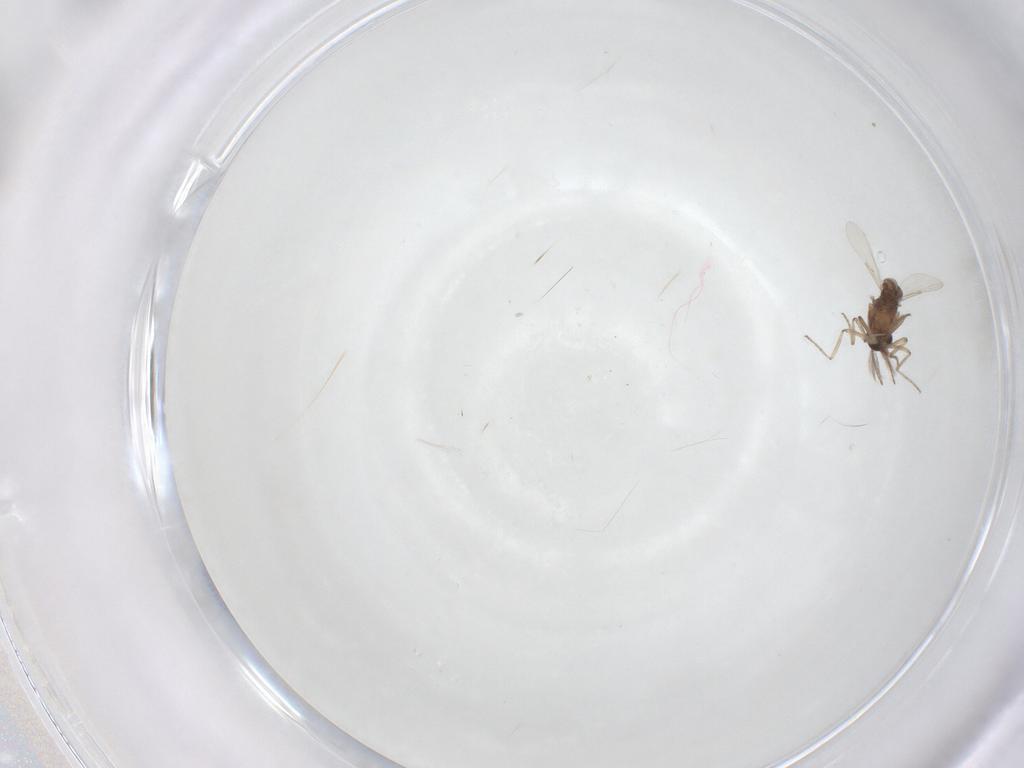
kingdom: Animalia
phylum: Arthropoda
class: Insecta
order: Diptera
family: Ceratopogonidae
